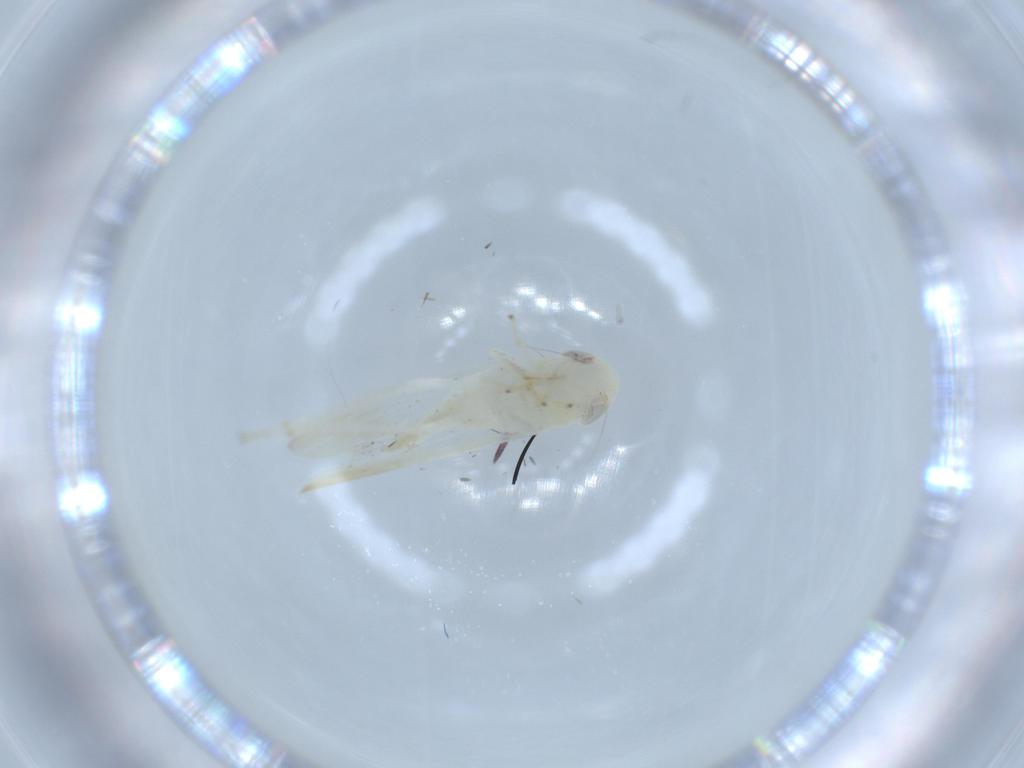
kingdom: Animalia
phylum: Arthropoda
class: Insecta
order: Hemiptera
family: Cicadellidae
